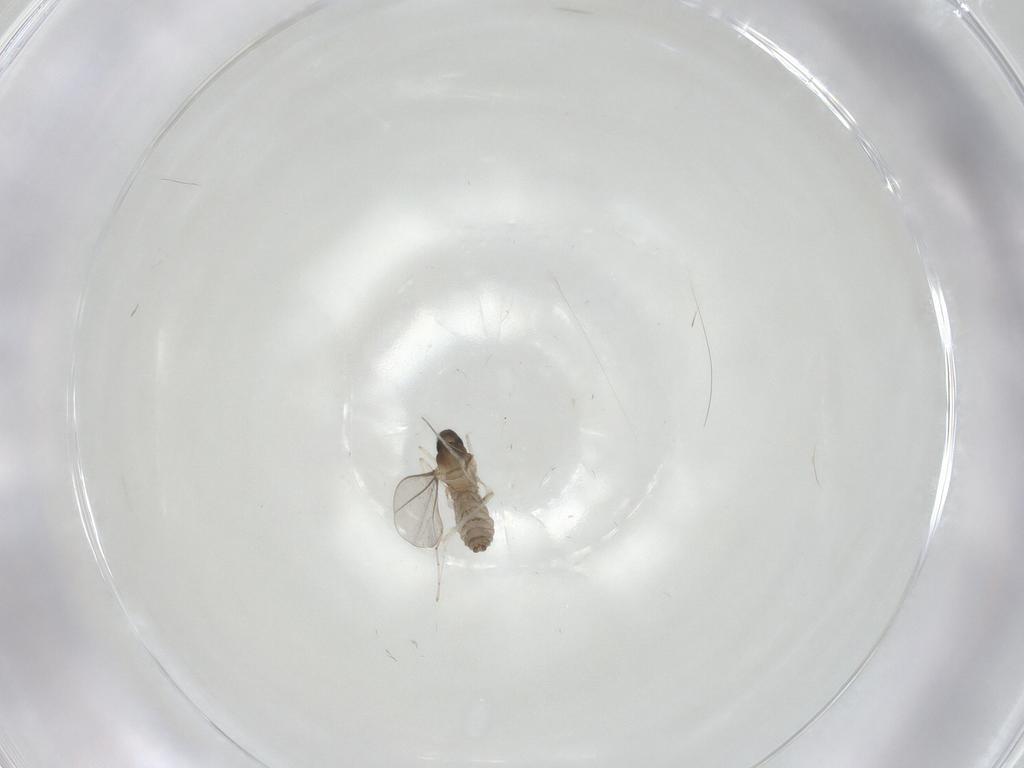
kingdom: Animalia
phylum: Arthropoda
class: Insecta
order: Diptera
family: Cecidomyiidae
